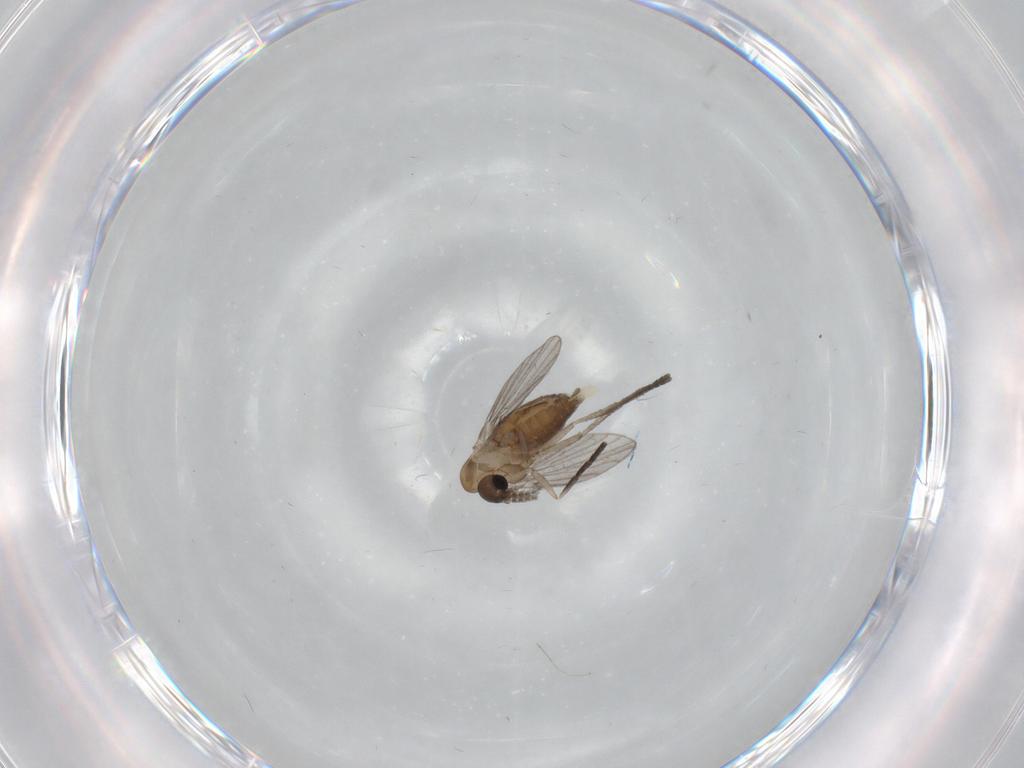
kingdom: Animalia
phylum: Arthropoda
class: Insecta
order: Diptera
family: Psychodidae
